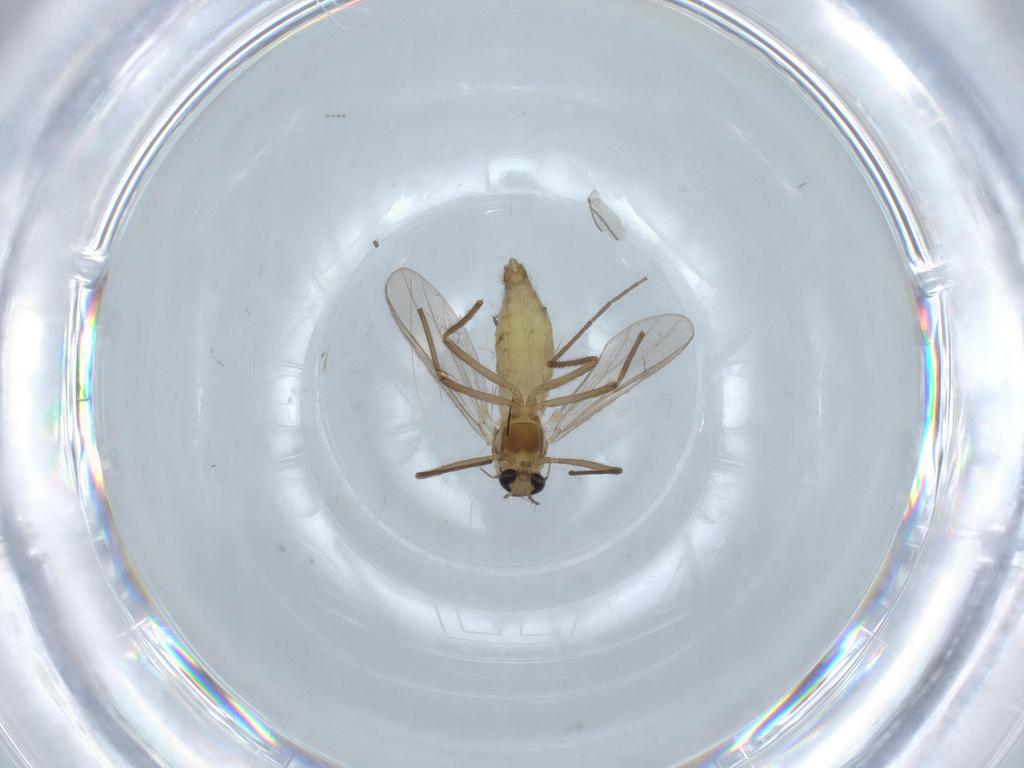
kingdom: Animalia
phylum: Arthropoda
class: Insecta
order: Diptera
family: Chironomidae
